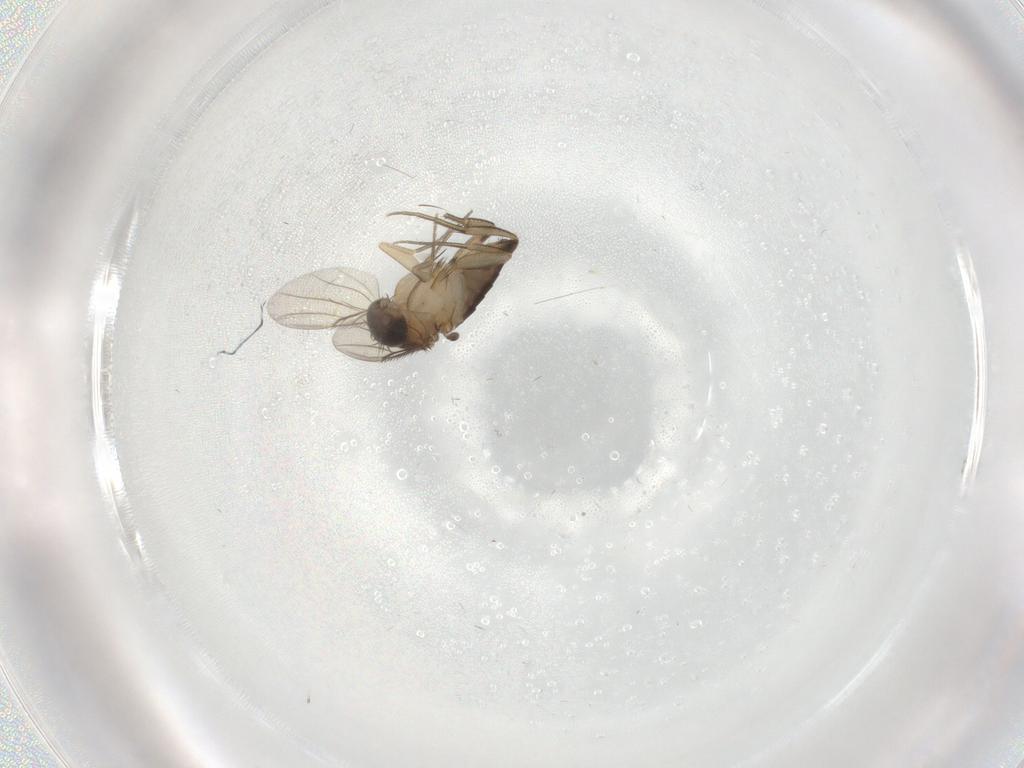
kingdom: Animalia
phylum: Arthropoda
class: Insecta
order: Diptera
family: Phoridae
